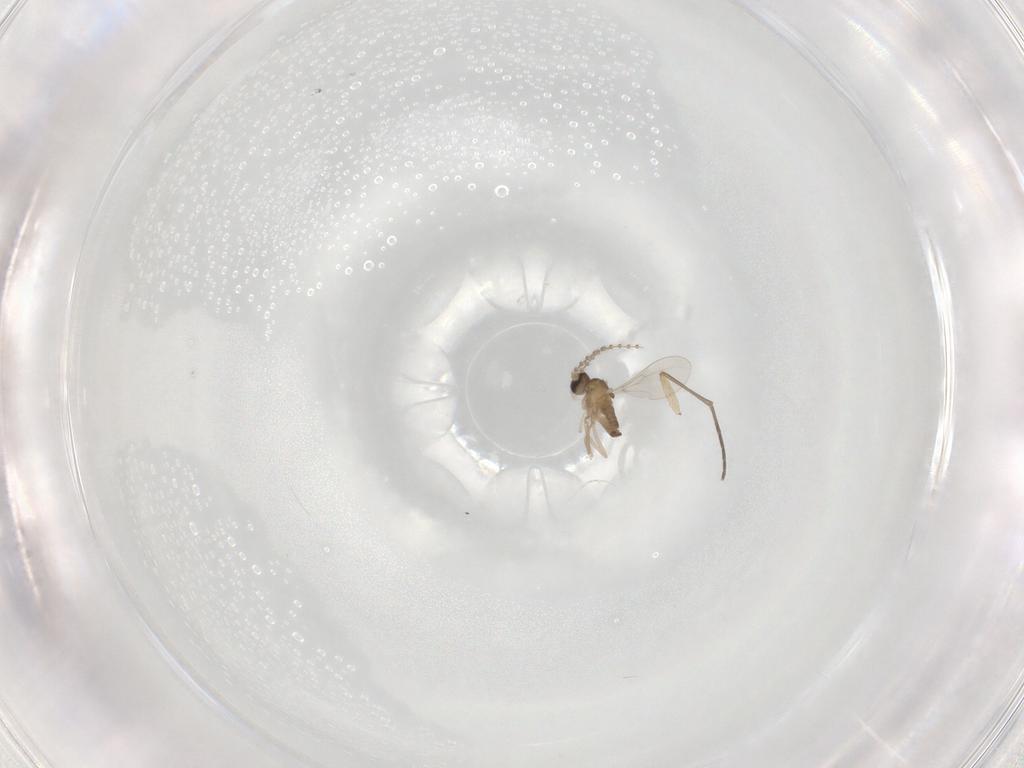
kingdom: Animalia
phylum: Arthropoda
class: Insecta
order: Diptera
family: Cecidomyiidae
